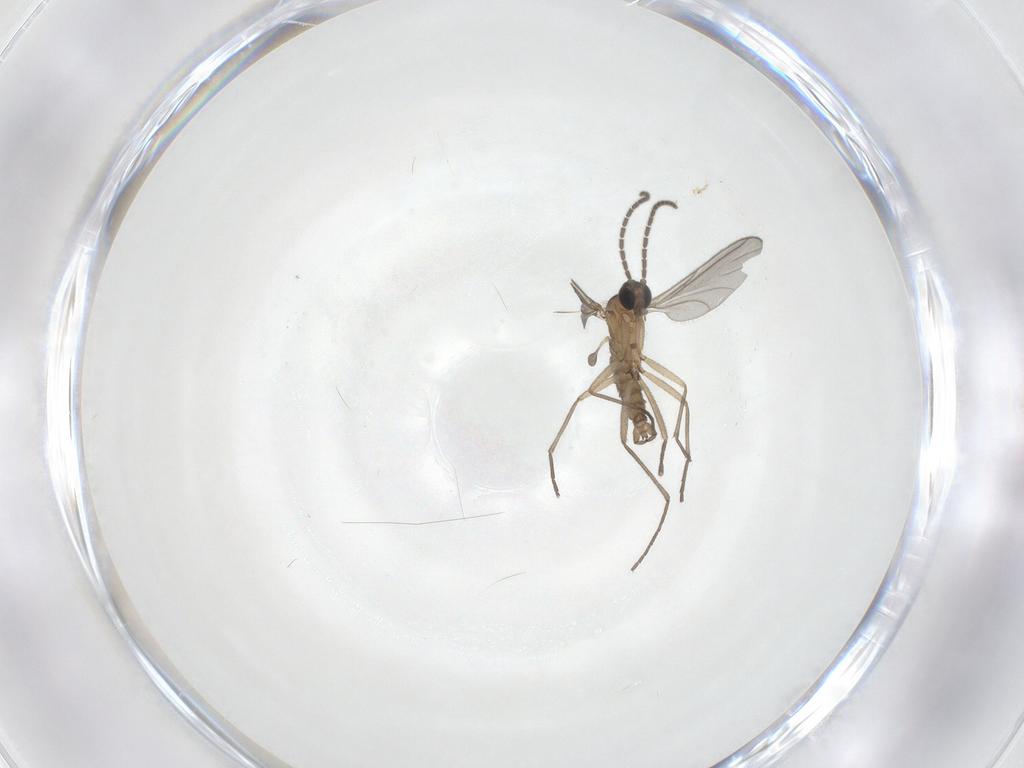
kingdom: Animalia
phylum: Arthropoda
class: Insecta
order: Diptera
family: Sciaridae
